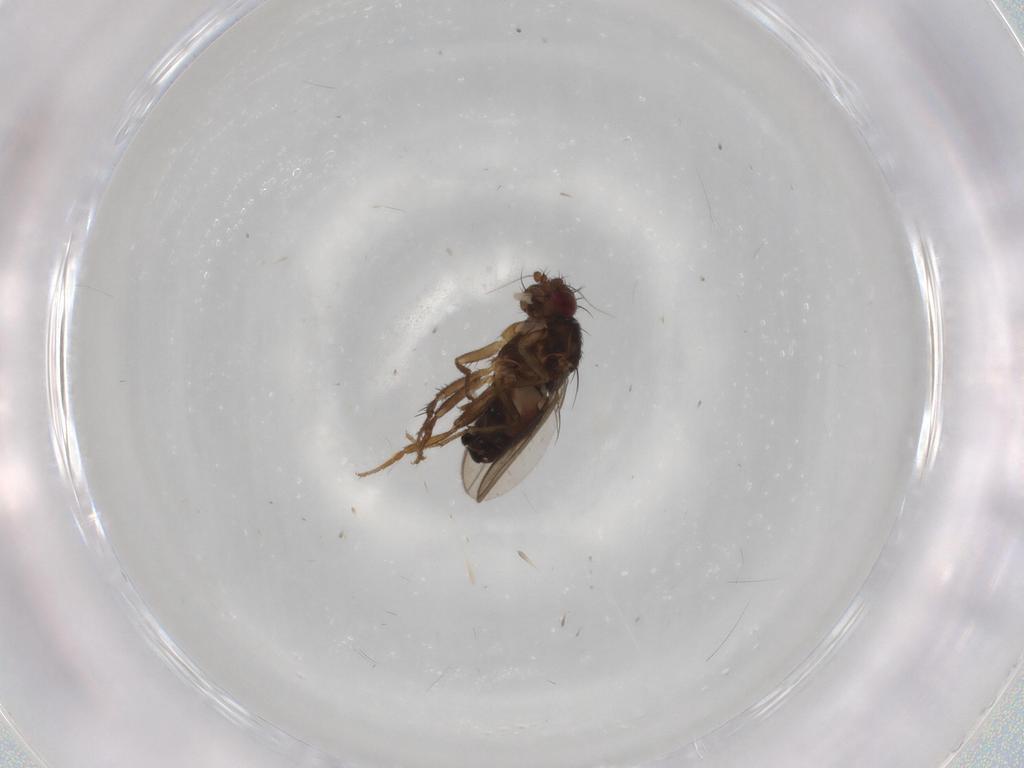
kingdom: Animalia
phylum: Arthropoda
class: Insecta
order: Diptera
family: Sphaeroceridae
